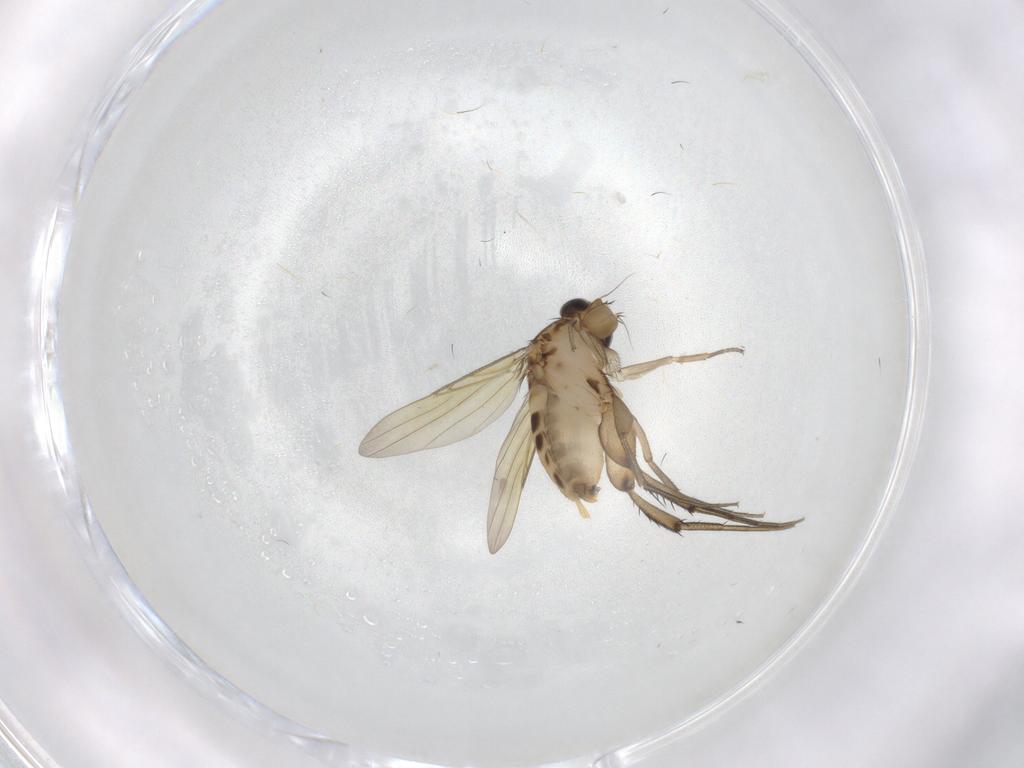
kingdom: Animalia
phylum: Arthropoda
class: Insecta
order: Diptera
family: Phoridae
